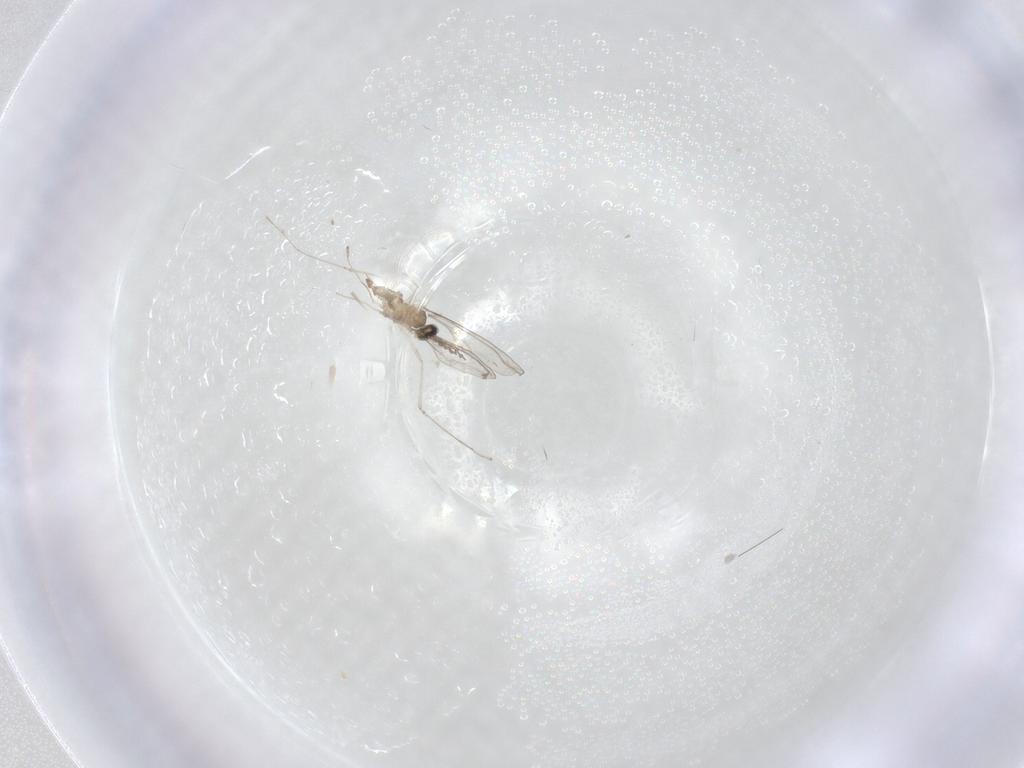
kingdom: Animalia
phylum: Arthropoda
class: Insecta
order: Diptera
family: Cecidomyiidae
